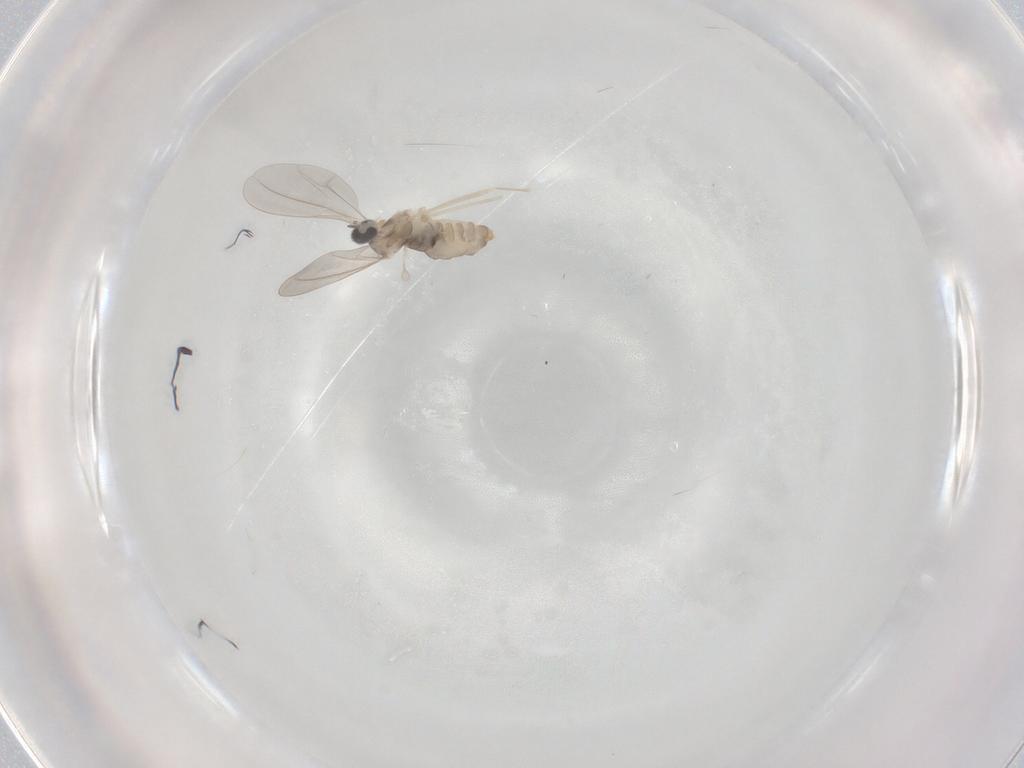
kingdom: Animalia
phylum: Arthropoda
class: Insecta
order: Diptera
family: Cecidomyiidae
